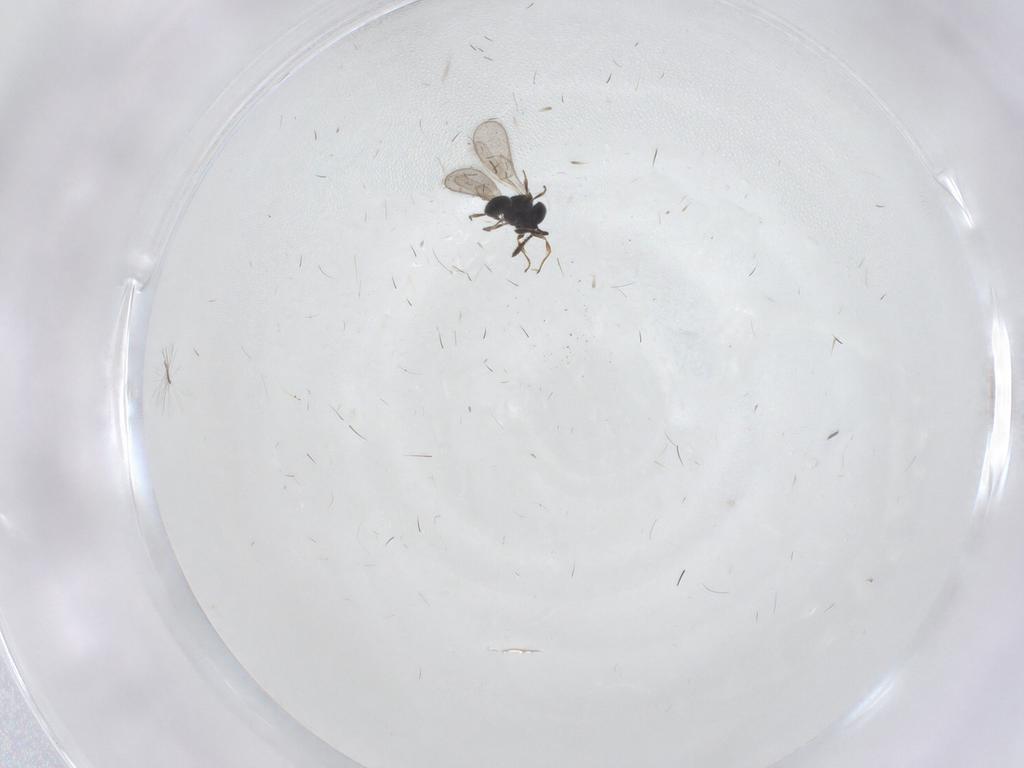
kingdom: Animalia
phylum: Arthropoda
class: Insecta
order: Hymenoptera
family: Scelionidae
